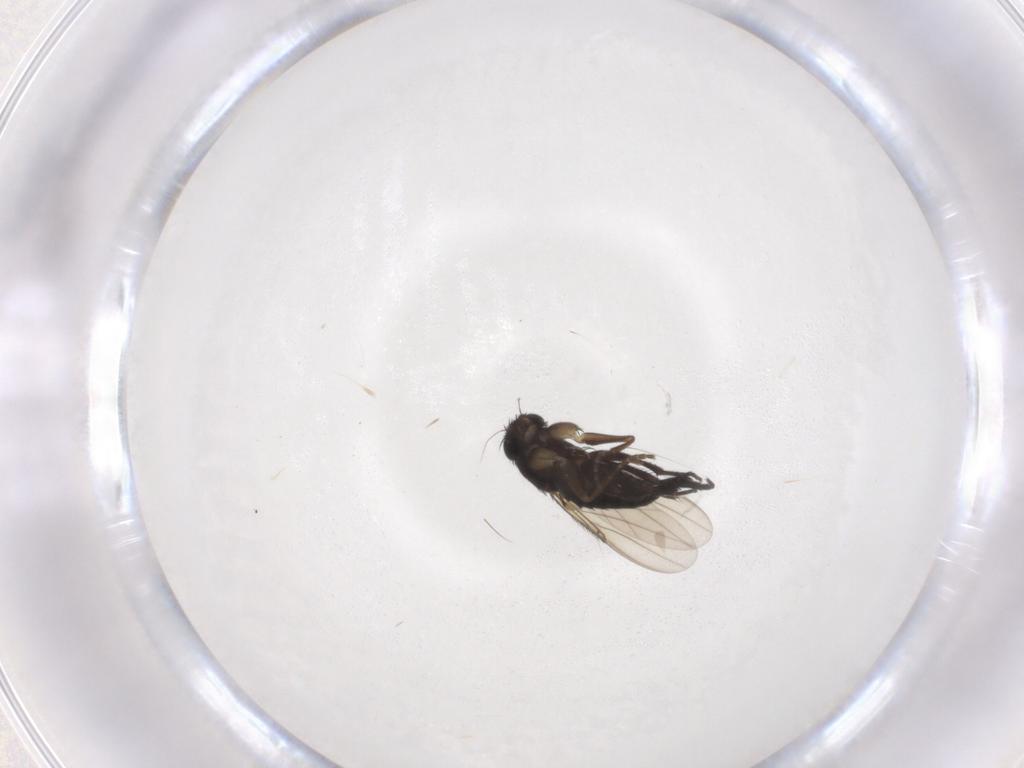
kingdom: Animalia
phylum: Arthropoda
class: Insecta
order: Diptera
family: Phoridae
